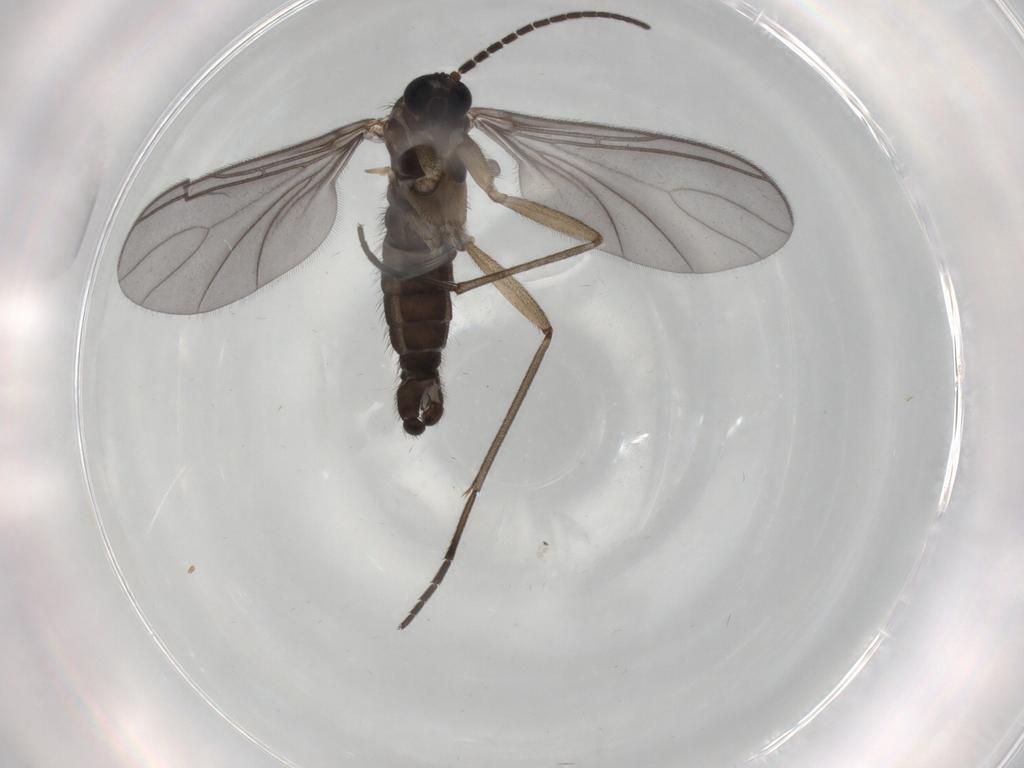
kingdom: Animalia
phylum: Arthropoda
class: Insecta
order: Diptera
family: Sciaridae
